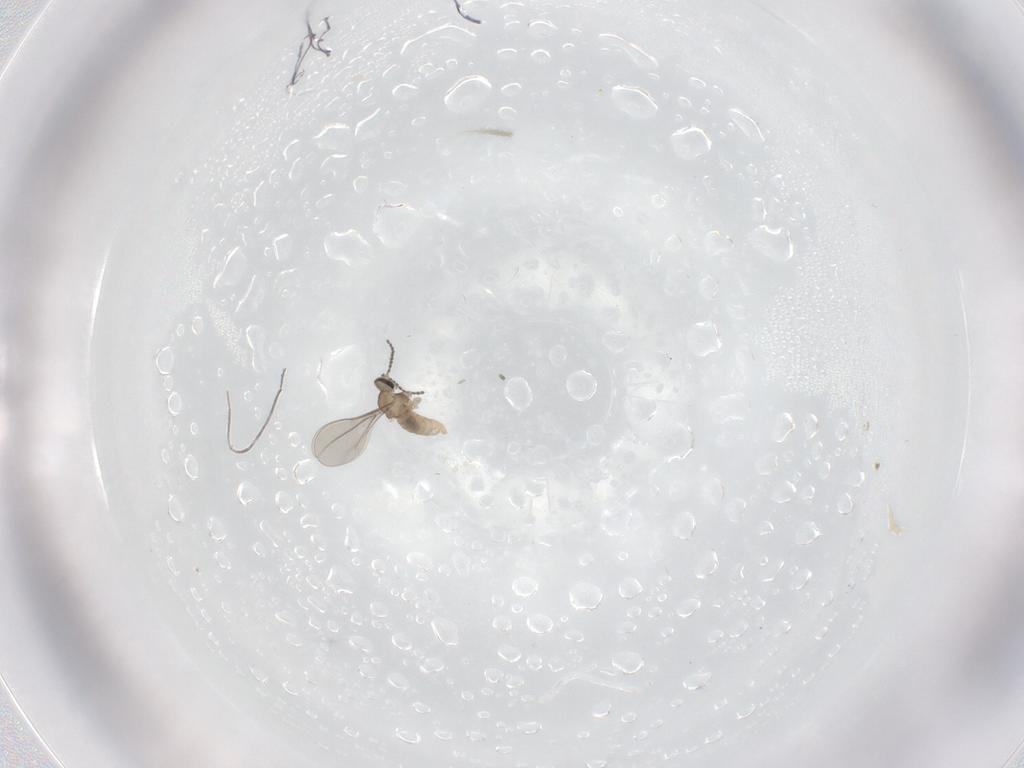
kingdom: Animalia
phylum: Arthropoda
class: Insecta
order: Diptera
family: Cecidomyiidae
